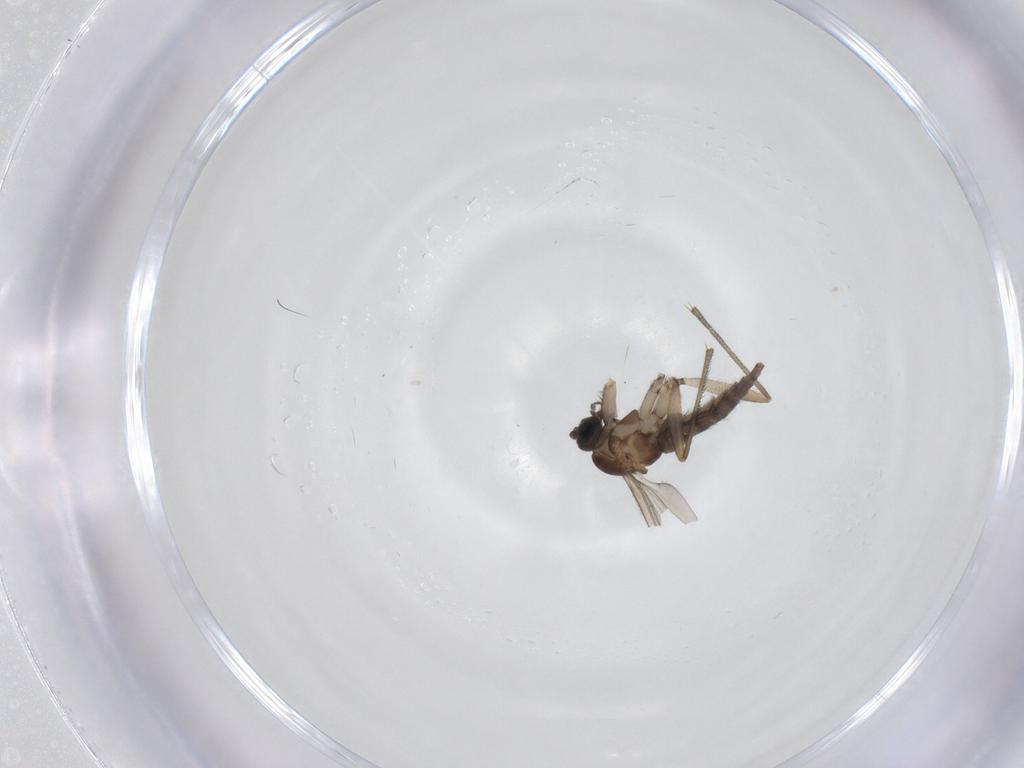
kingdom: Animalia
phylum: Arthropoda
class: Insecta
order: Diptera
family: Sciaridae
